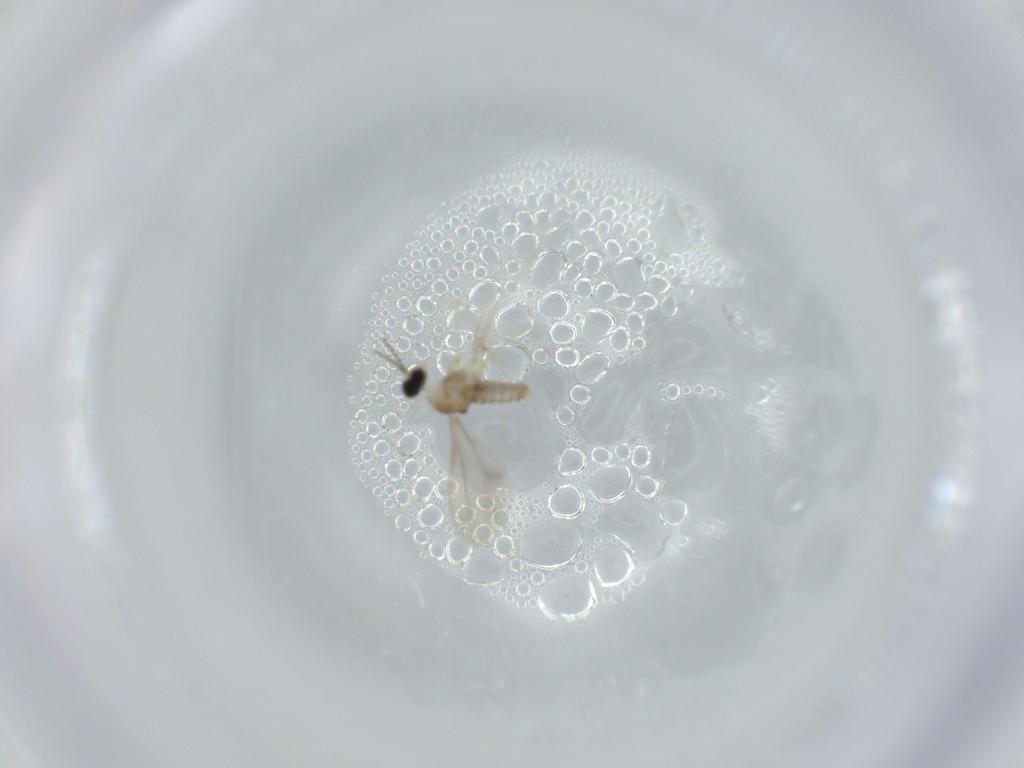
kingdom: Animalia
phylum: Arthropoda
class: Insecta
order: Diptera
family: Cecidomyiidae
